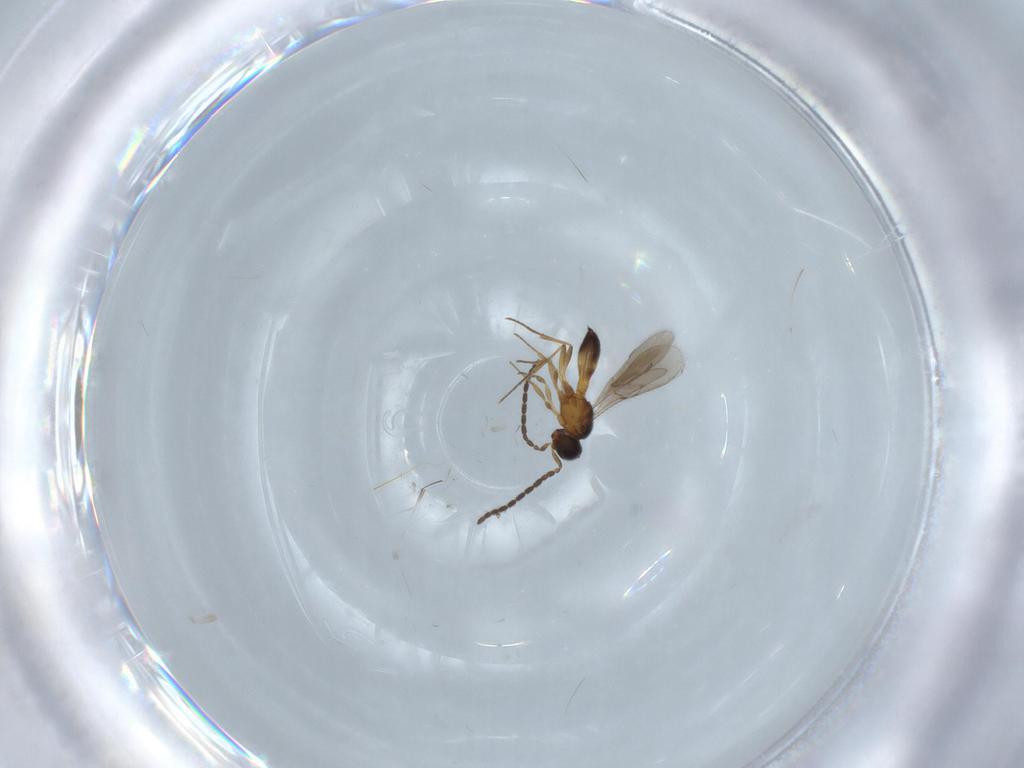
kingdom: Animalia
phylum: Arthropoda
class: Insecta
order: Hymenoptera
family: Scelionidae
